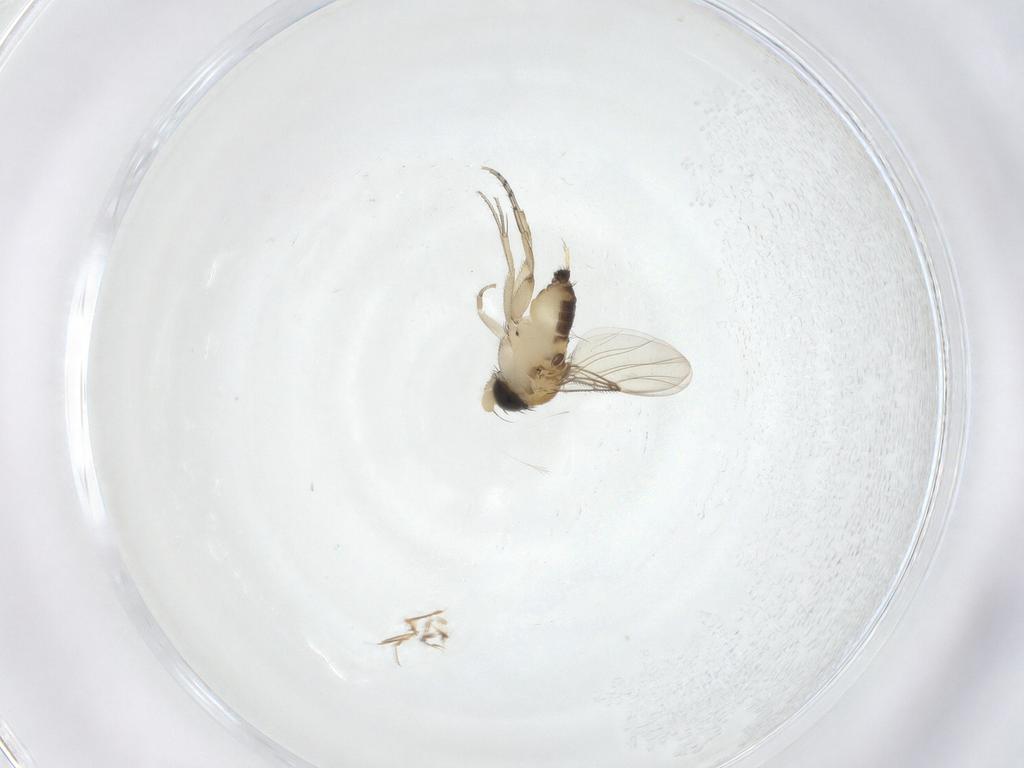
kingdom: Animalia
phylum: Arthropoda
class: Insecta
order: Diptera
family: Phoridae
